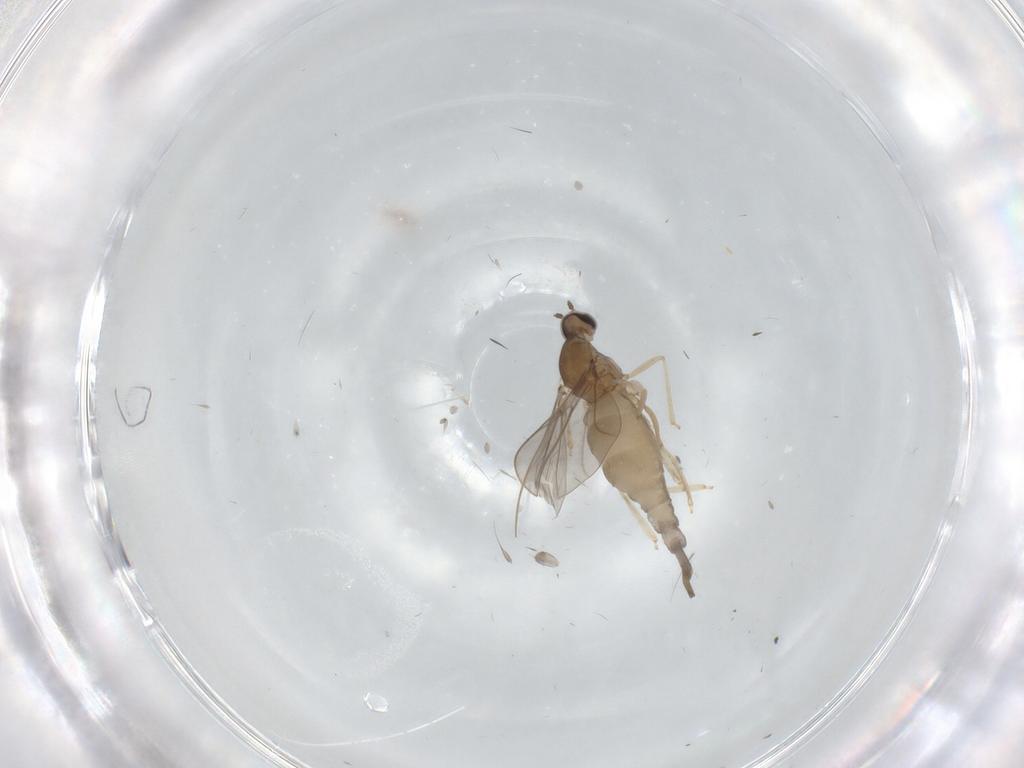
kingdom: Animalia
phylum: Arthropoda
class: Insecta
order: Diptera
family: Cecidomyiidae
